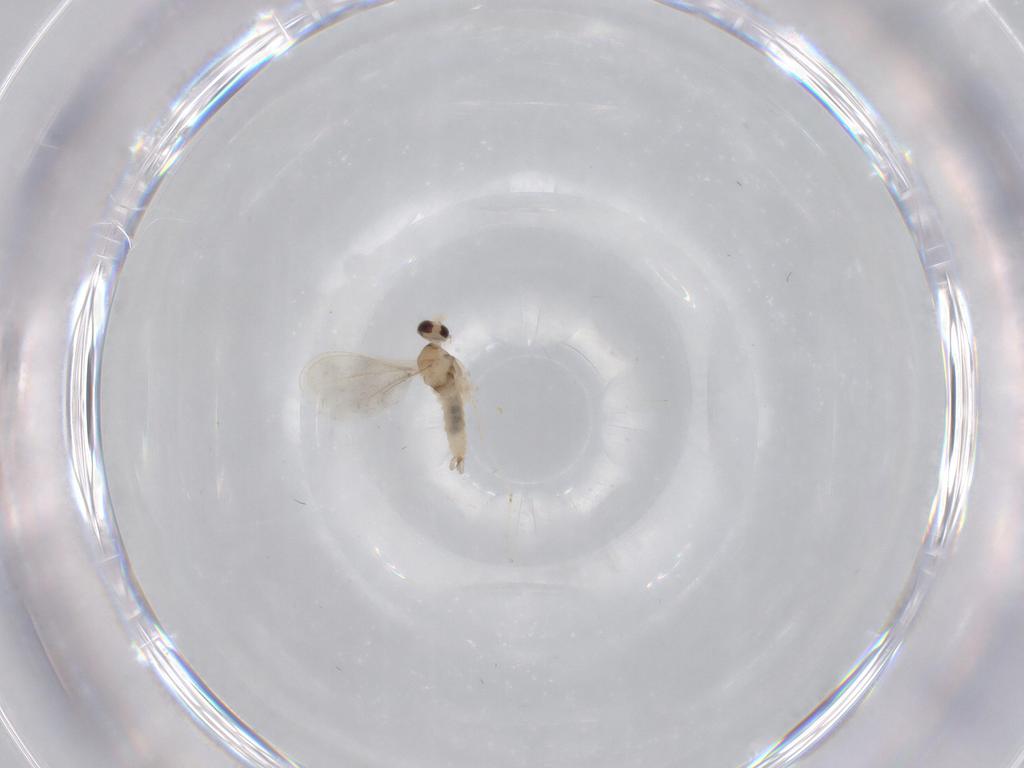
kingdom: Animalia
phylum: Arthropoda
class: Insecta
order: Diptera
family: Cecidomyiidae
